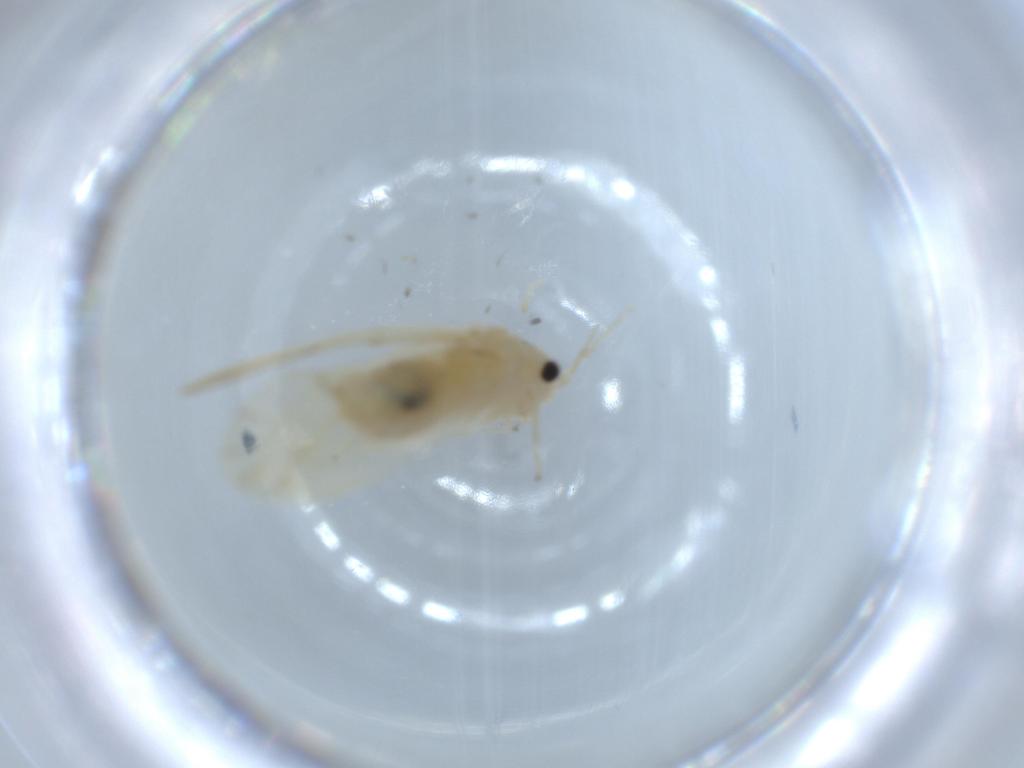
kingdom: Animalia
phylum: Arthropoda
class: Insecta
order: Psocodea
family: Caeciliusidae
